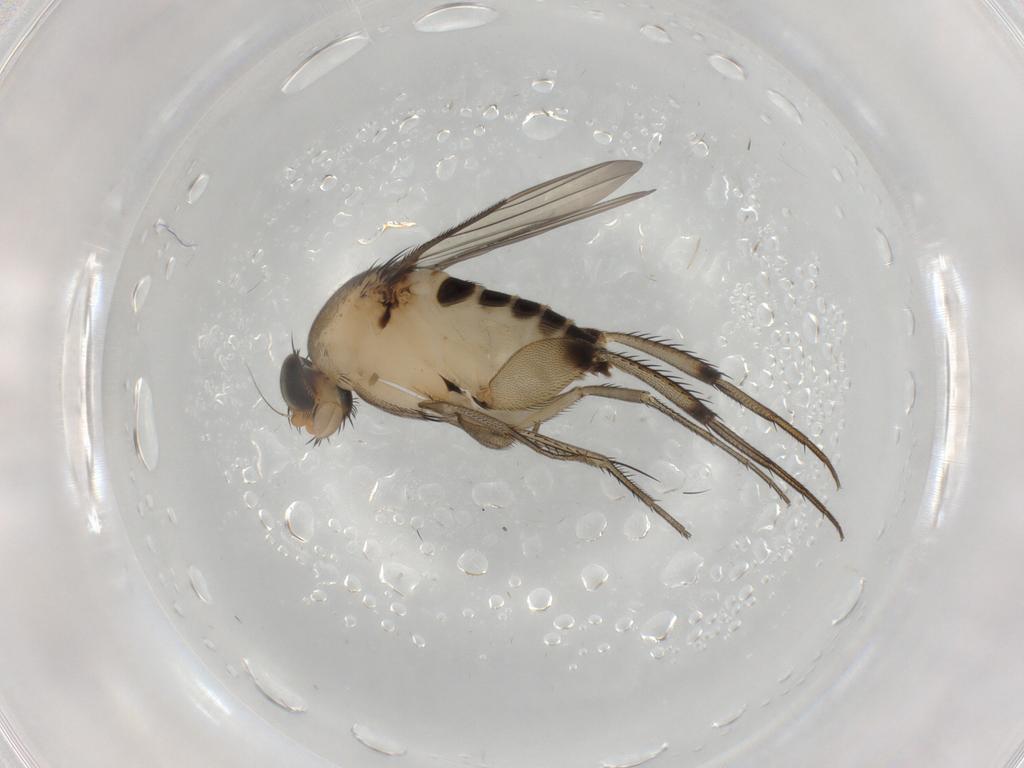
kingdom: Animalia
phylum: Arthropoda
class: Insecta
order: Diptera
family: Phoridae
